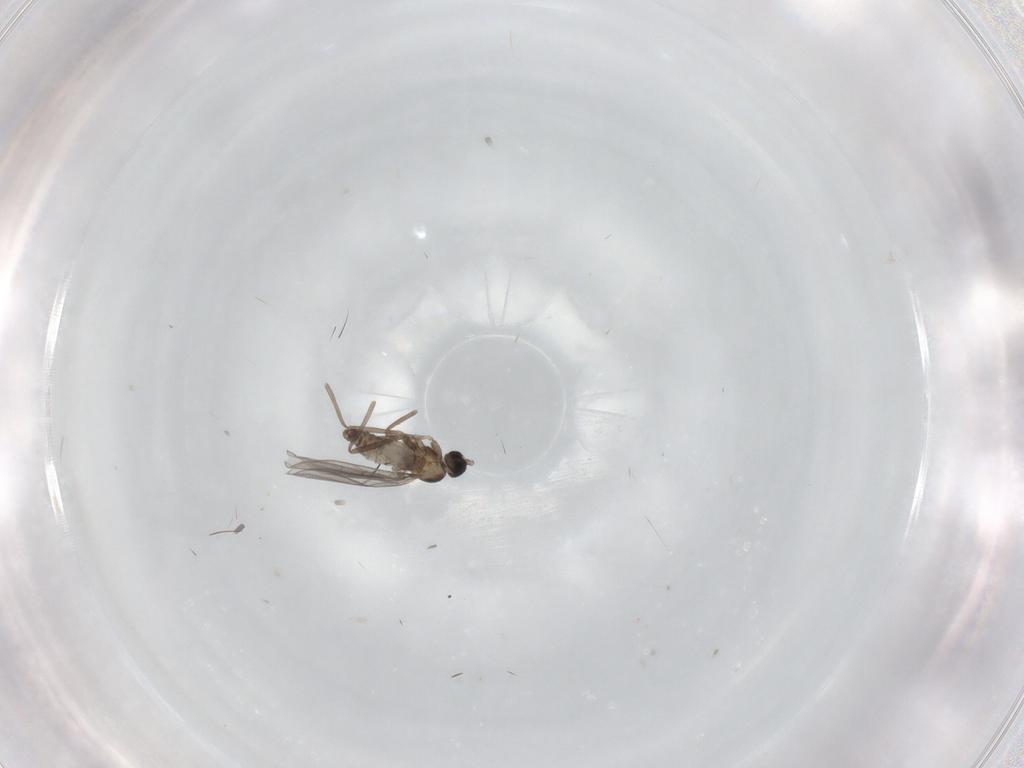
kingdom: Animalia
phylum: Arthropoda
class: Insecta
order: Diptera
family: Cecidomyiidae
